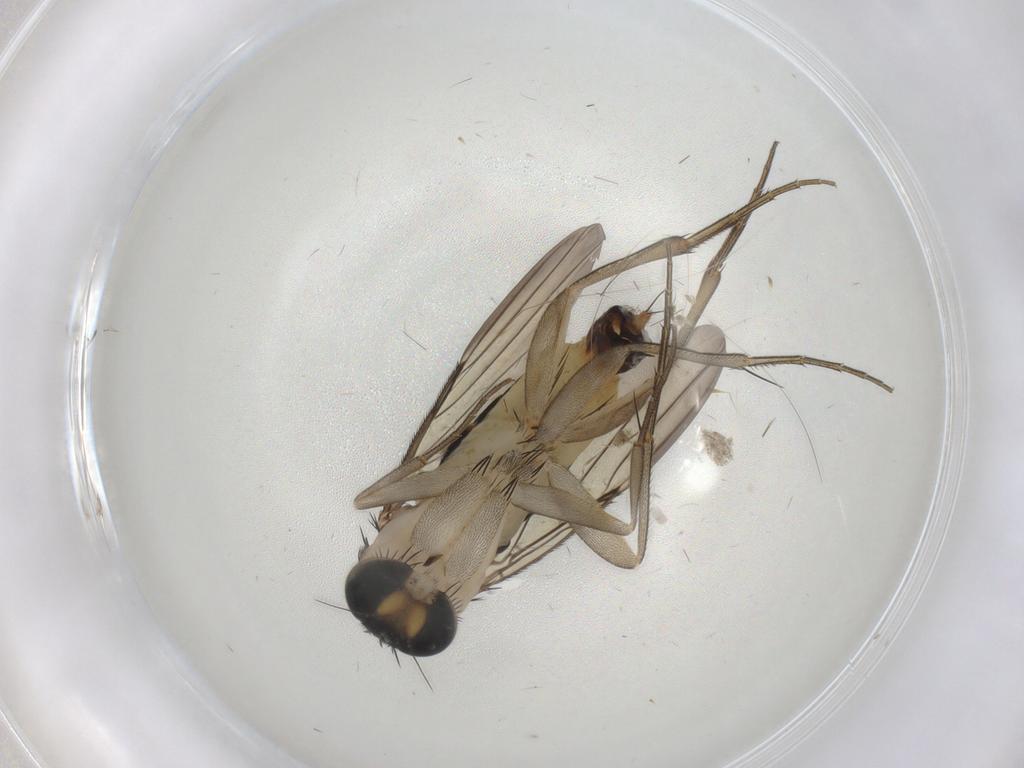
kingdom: Animalia
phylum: Arthropoda
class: Insecta
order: Diptera
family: Phoridae
